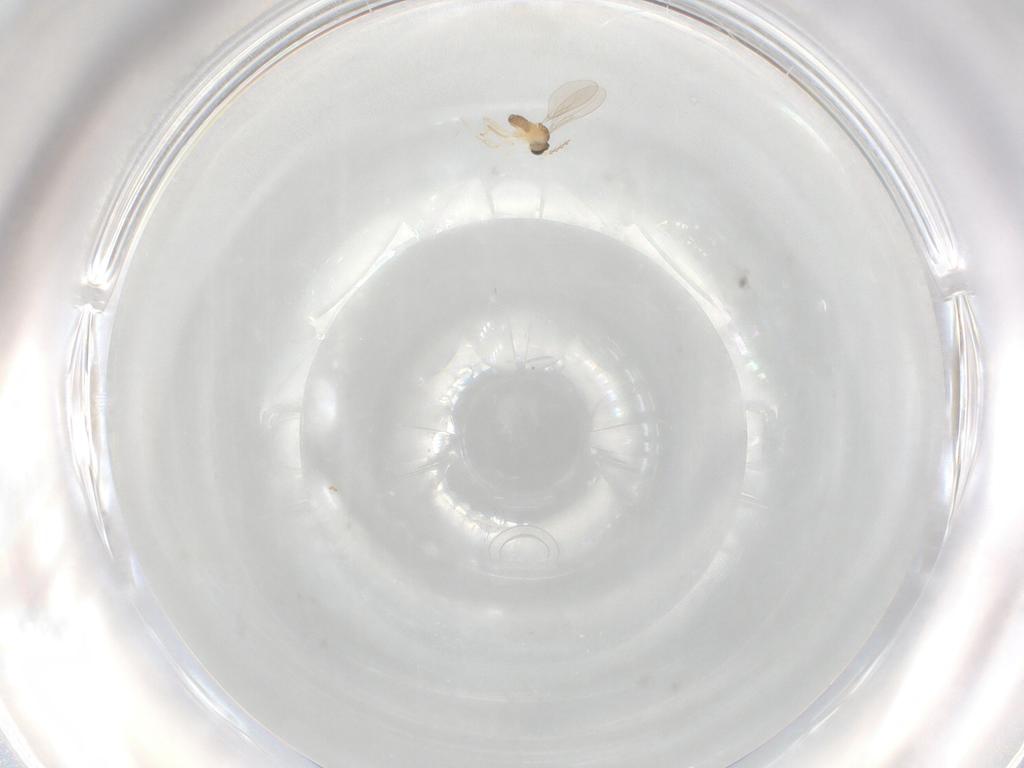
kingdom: Animalia
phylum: Arthropoda
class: Insecta
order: Diptera
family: Cecidomyiidae
